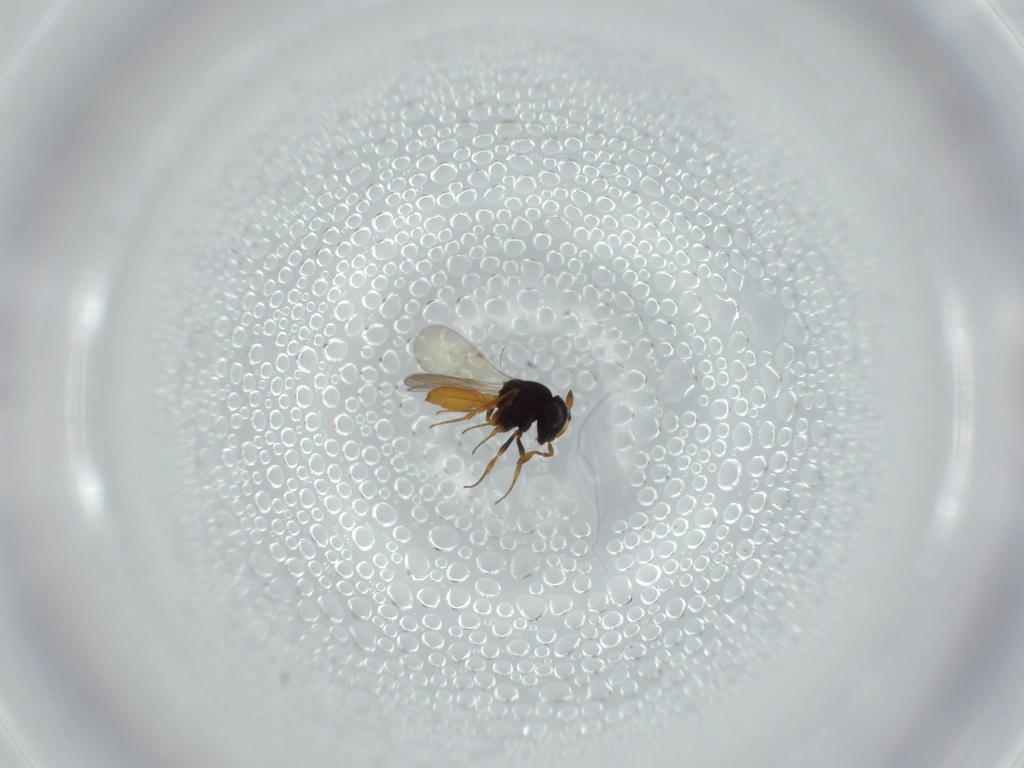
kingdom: Animalia
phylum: Arthropoda
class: Insecta
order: Hymenoptera
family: Scelionidae
